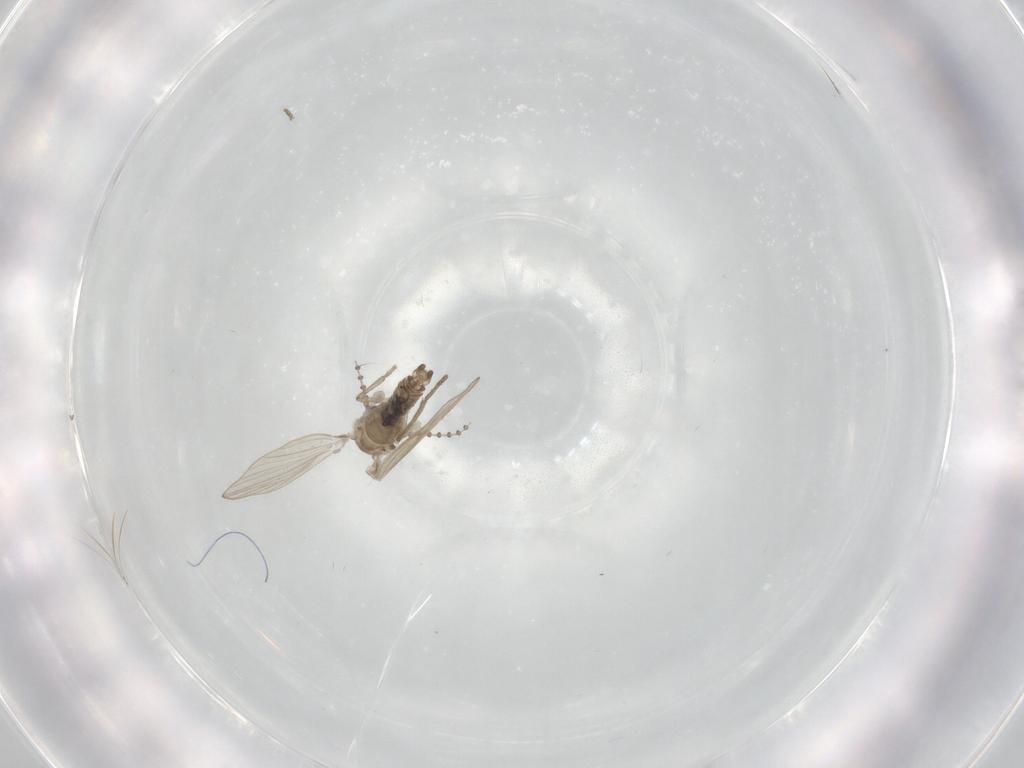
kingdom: Animalia
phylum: Arthropoda
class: Insecta
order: Diptera
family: Psychodidae
